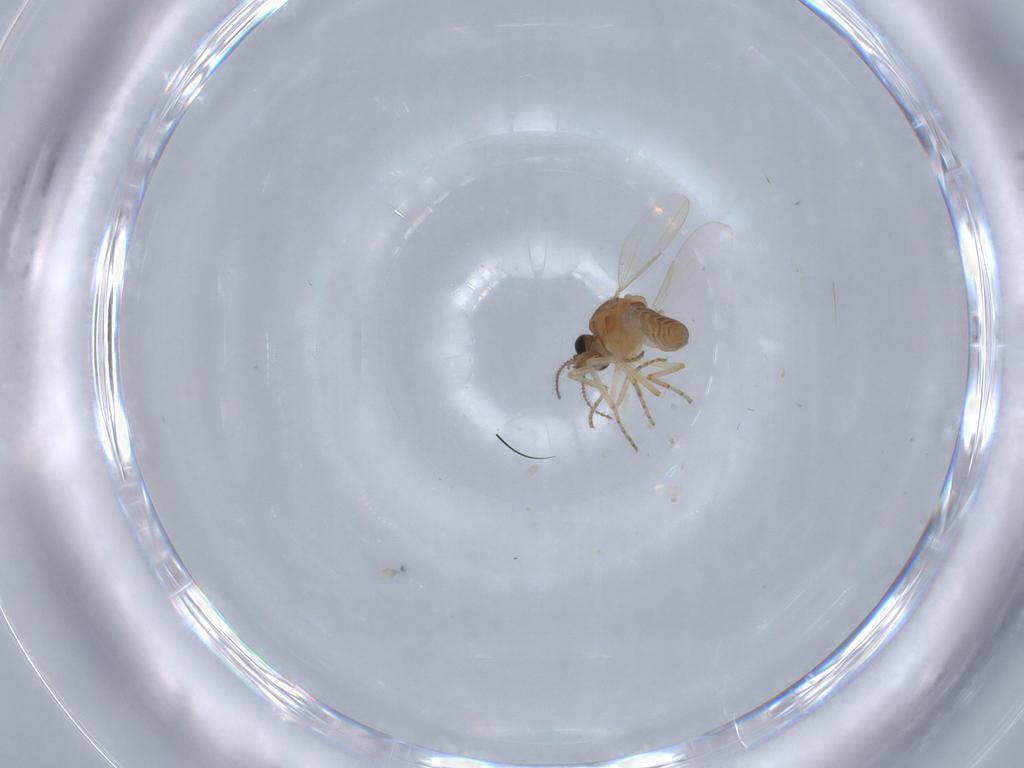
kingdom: Animalia
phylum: Arthropoda
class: Insecta
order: Diptera
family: Ceratopogonidae
